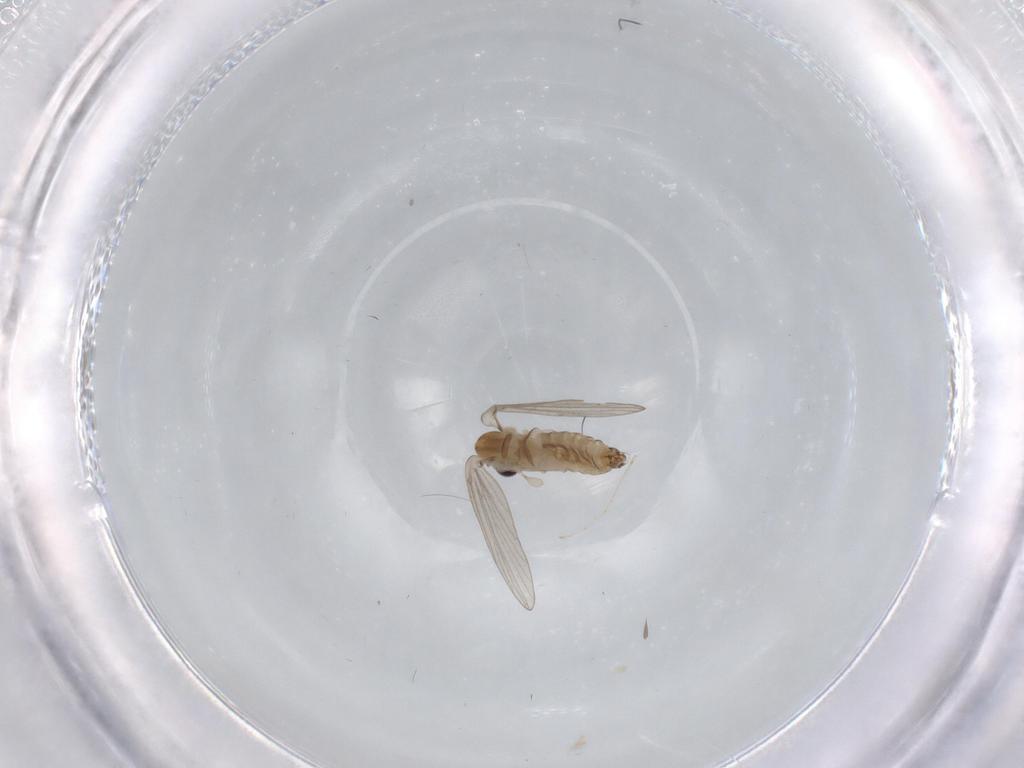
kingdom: Animalia
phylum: Arthropoda
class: Insecta
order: Diptera
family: Cecidomyiidae
